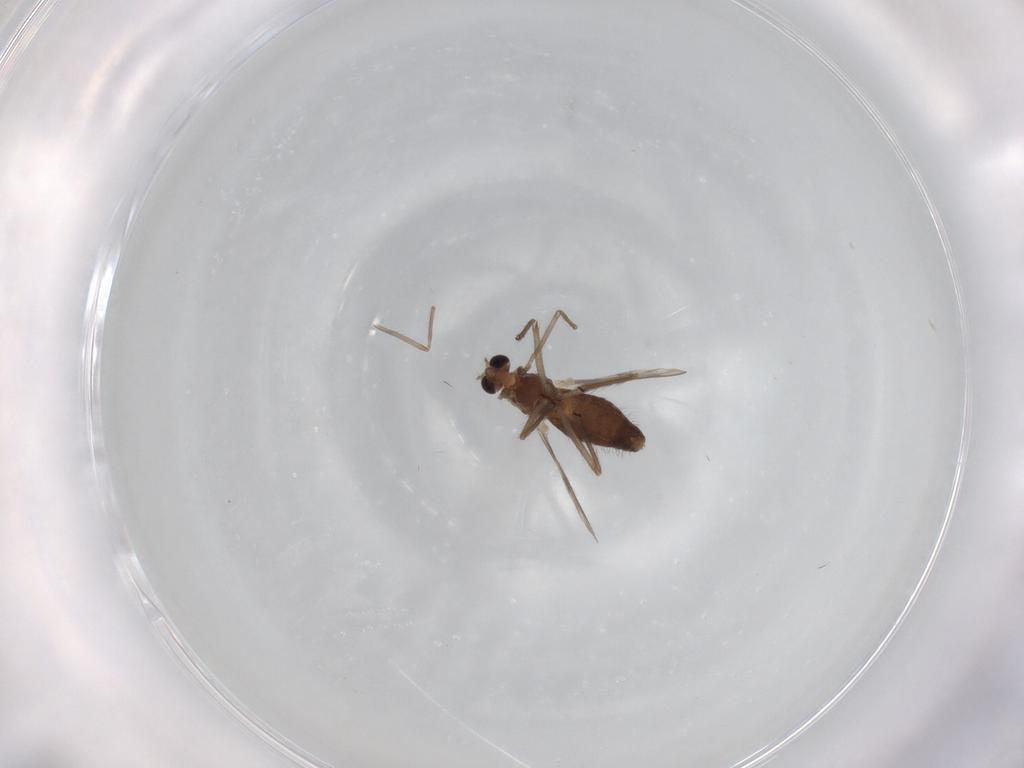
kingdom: Animalia
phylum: Arthropoda
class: Insecta
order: Diptera
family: Chironomidae
